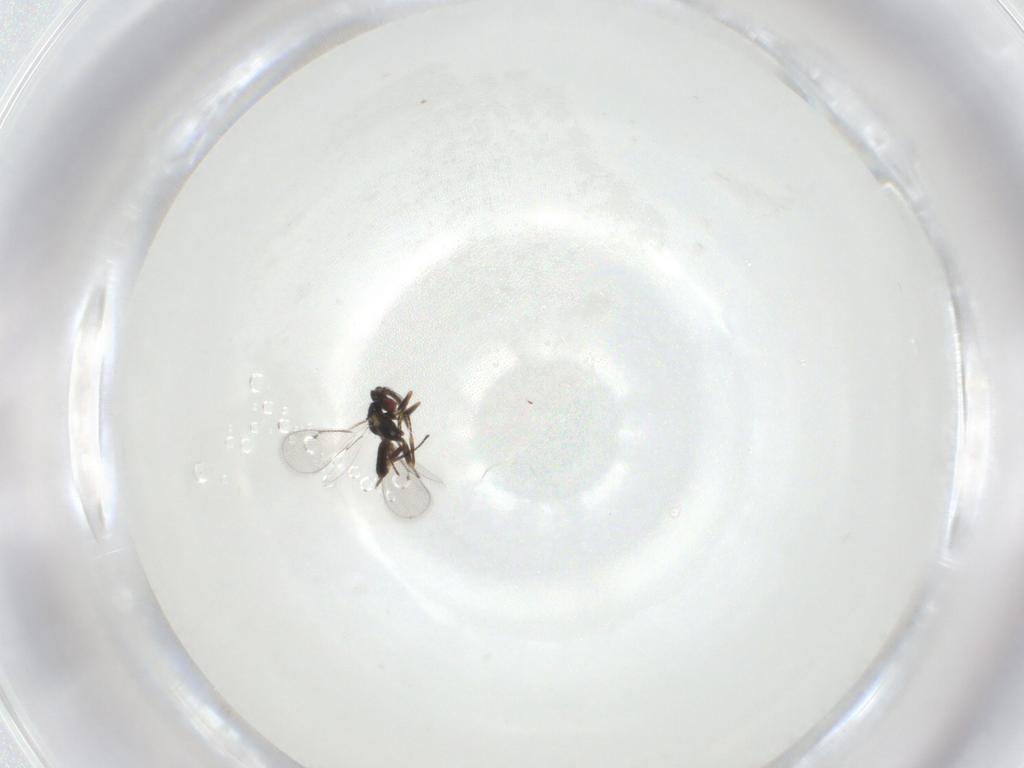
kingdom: Animalia
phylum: Arthropoda
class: Insecta
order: Hymenoptera
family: Eulophidae
